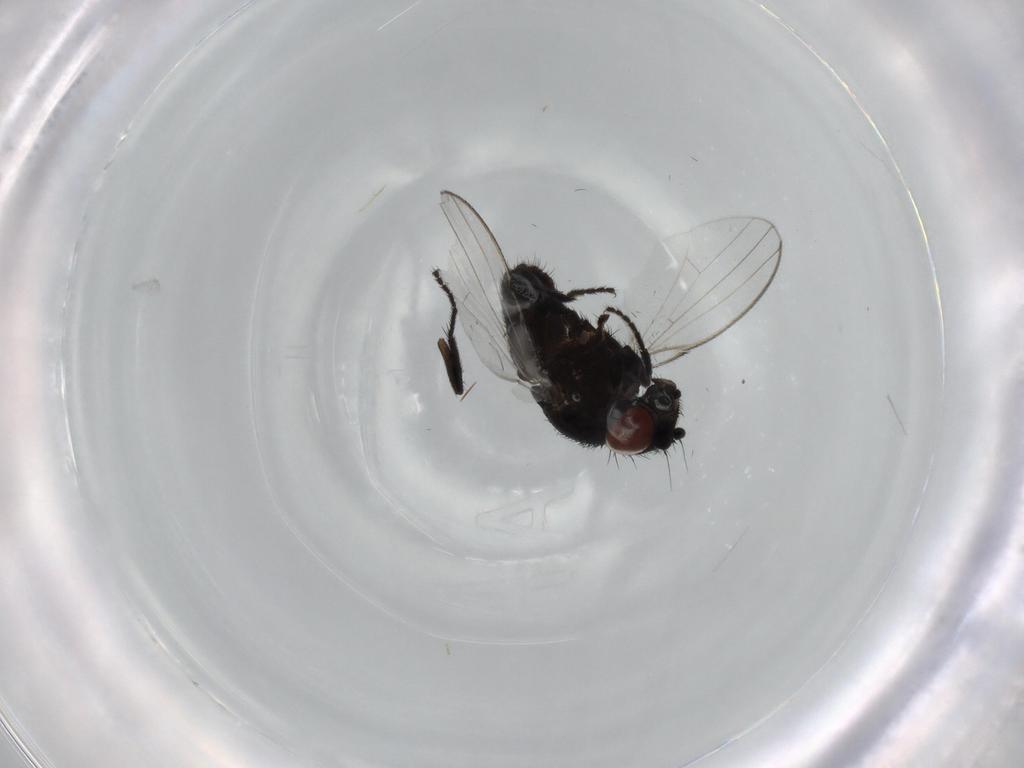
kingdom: Animalia
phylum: Arthropoda
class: Insecta
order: Diptera
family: Milichiidae
